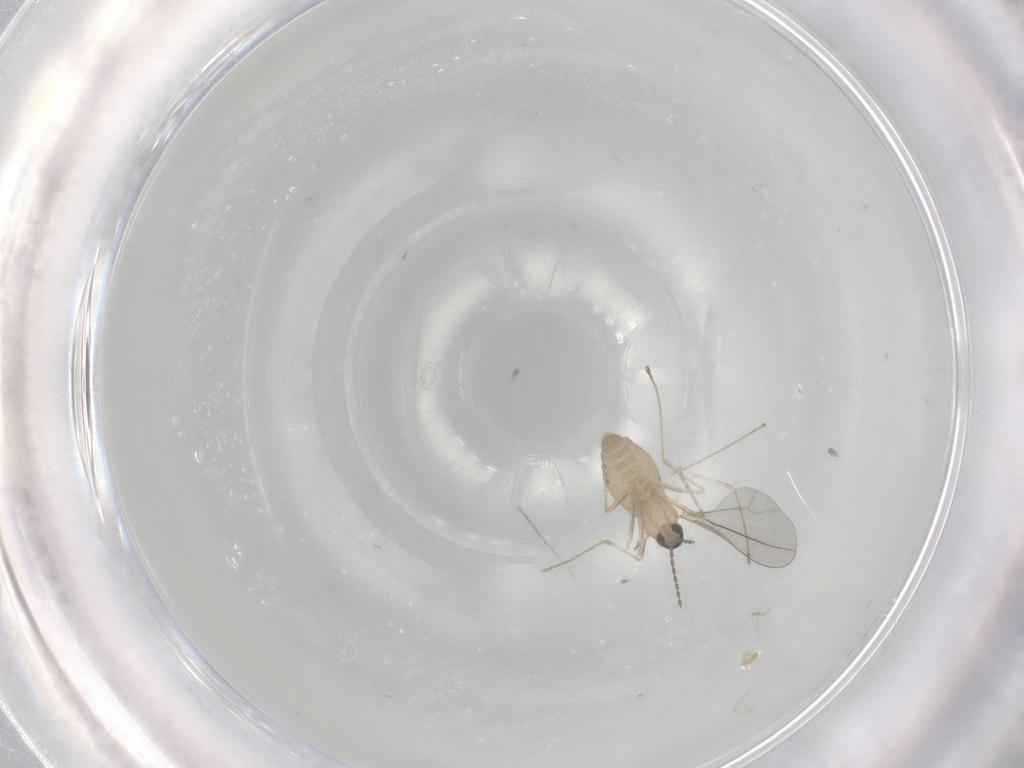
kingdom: Animalia
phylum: Arthropoda
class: Insecta
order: Diptera
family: Cecidomyiidae
